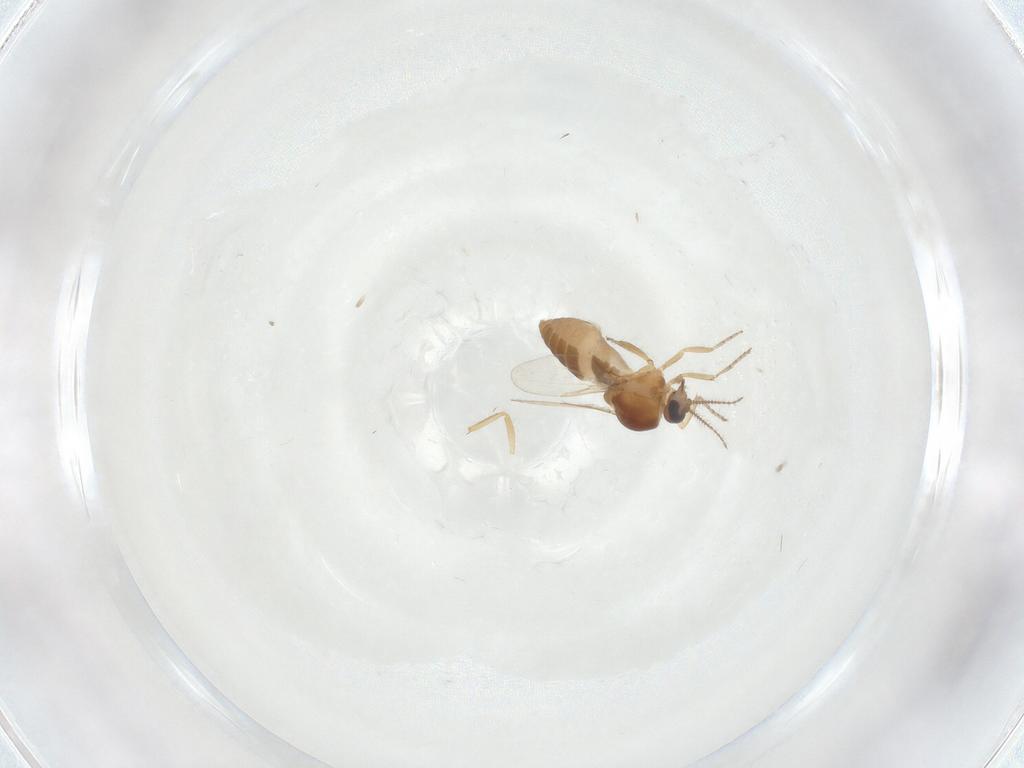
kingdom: Animalia
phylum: Arthropoda
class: Insecta
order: Diptera
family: Ceratopogonidae
